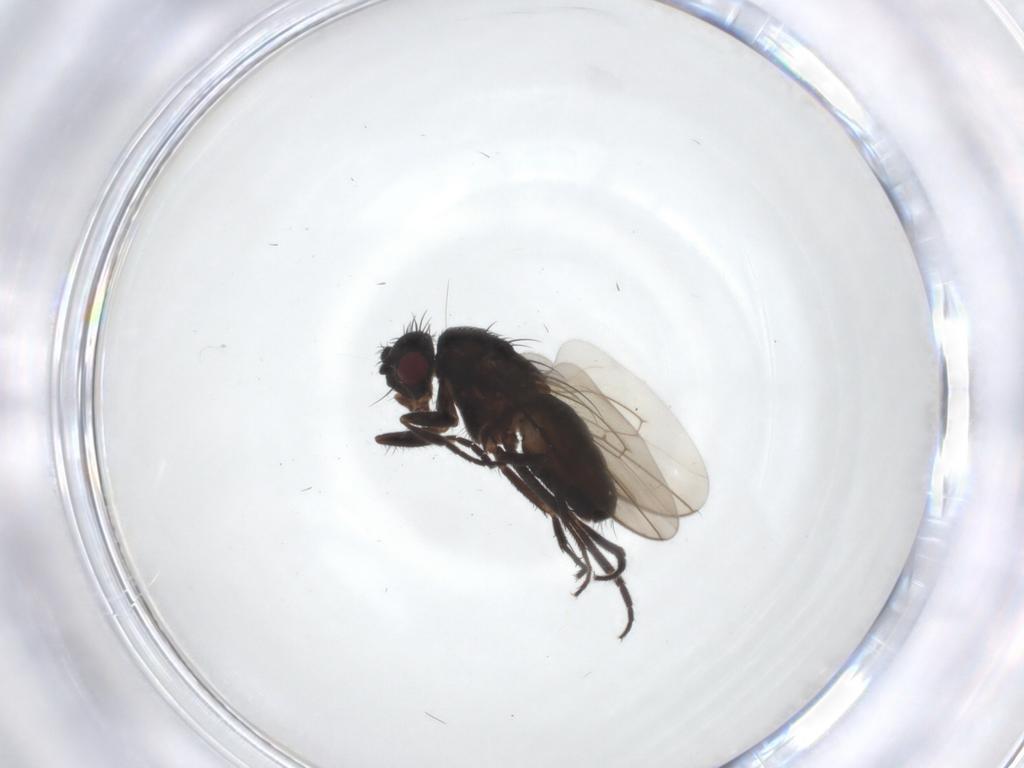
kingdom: Animalia
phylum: Arthropoda
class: Insecta
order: Diptera
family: Sphaeroceridae
